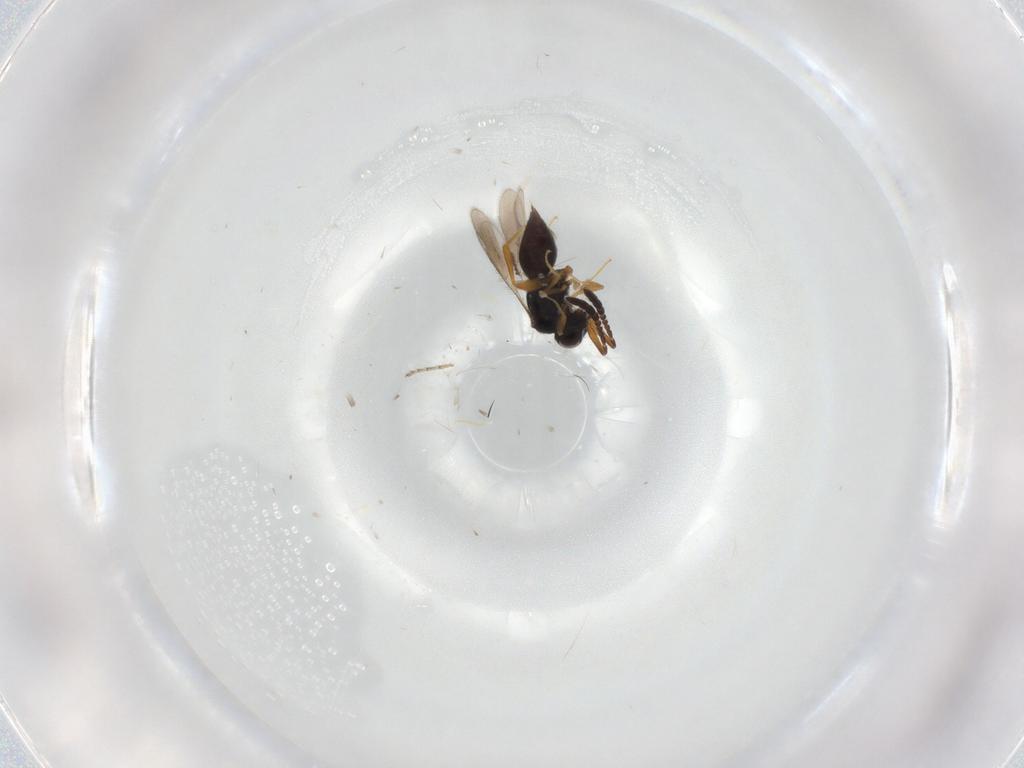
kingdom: Animalia
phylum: Arthropoda
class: Insecta
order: Hymenoptera
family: Ceraphronidae
